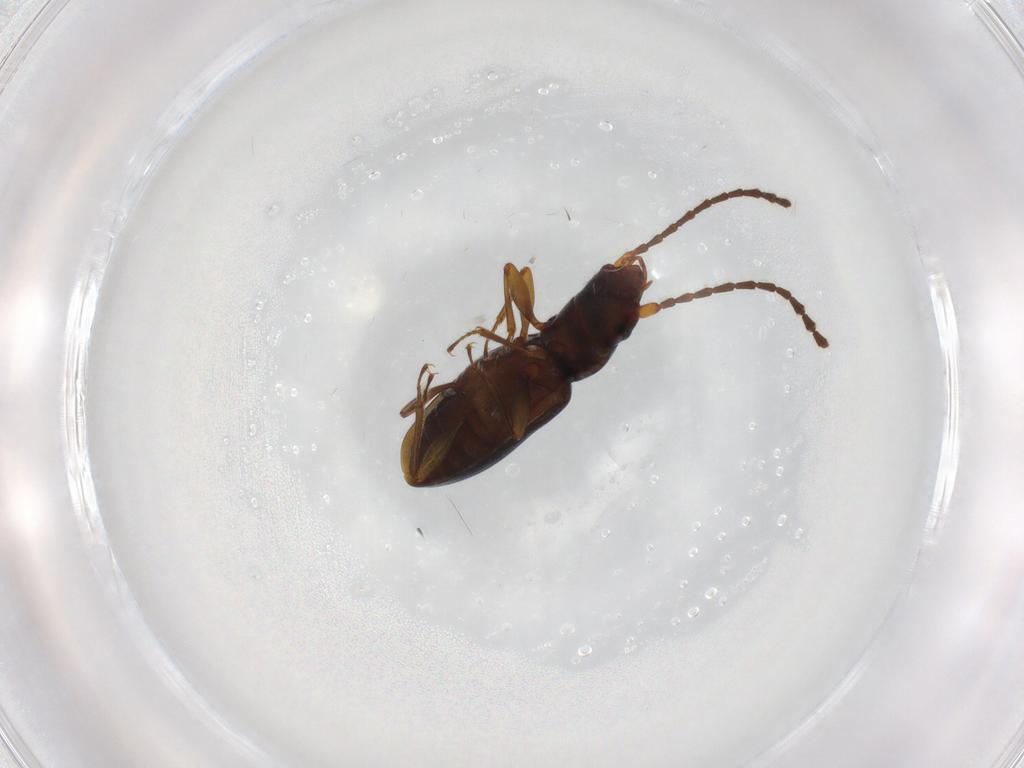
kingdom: Animalia
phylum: Arthropoda
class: Insecta
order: Coleoptera
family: Laemophloeidae
